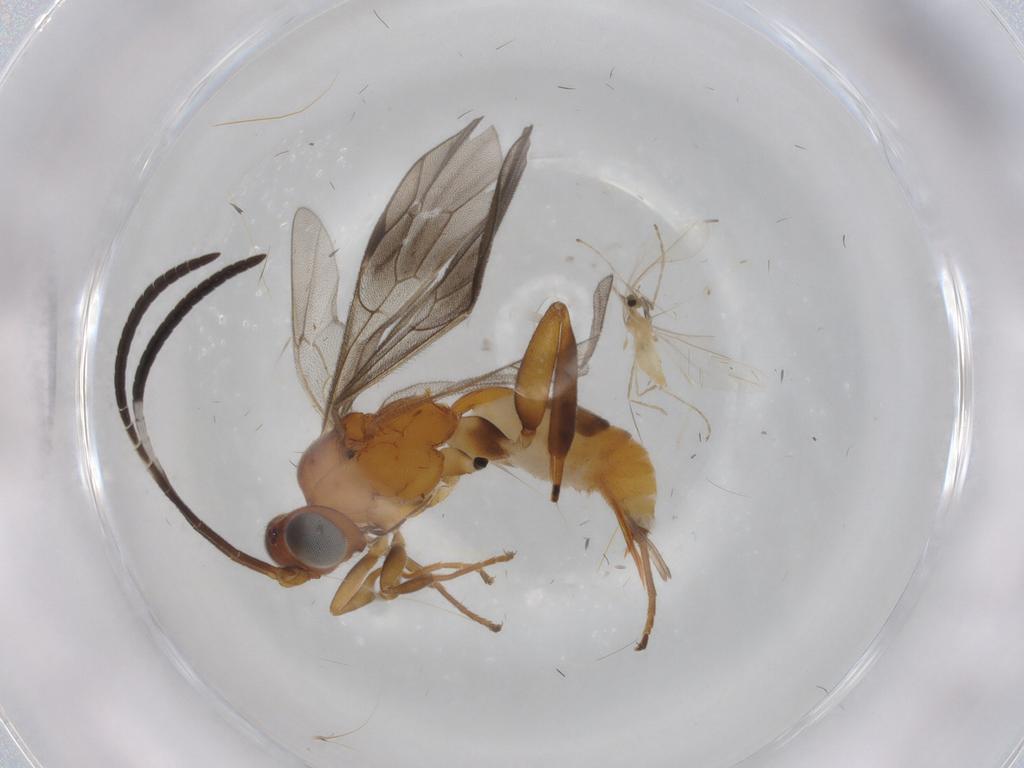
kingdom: Animalia
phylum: Arthropoda
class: Insecta
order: Hymenoptera
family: Ichneumonidae
